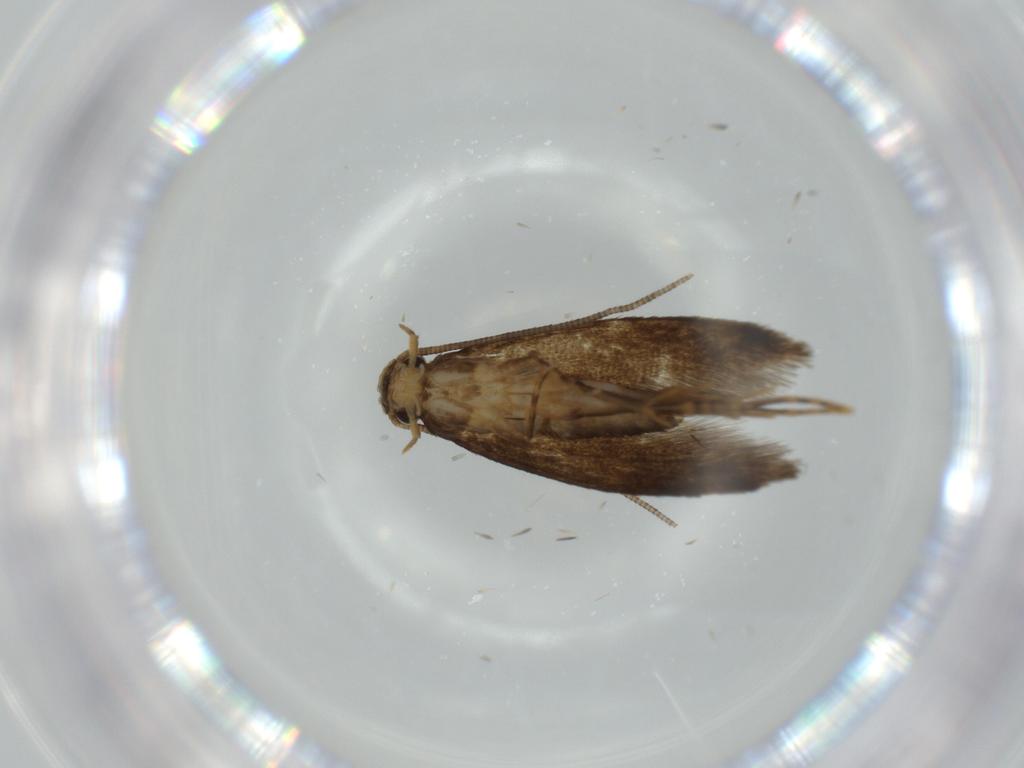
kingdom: Animalia
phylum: Arthropoda
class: Insecta
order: Lepidoptera
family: Tineidae
